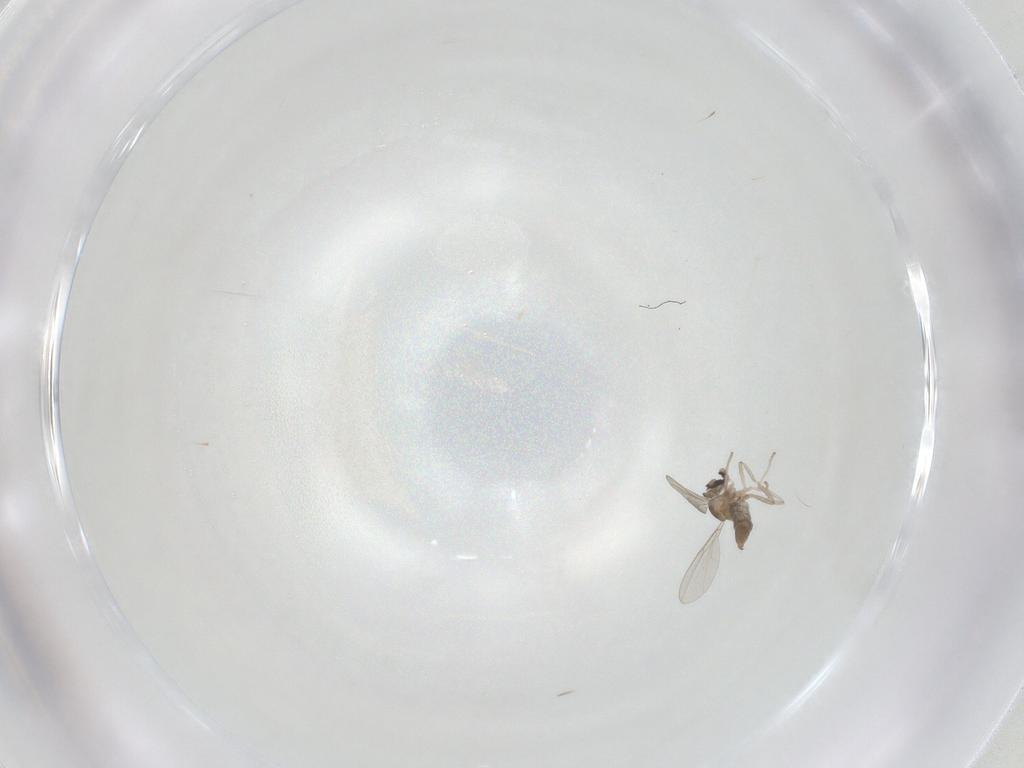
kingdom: Animalia
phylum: Arthropoda
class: Insecta
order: Diptera
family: Cecidomyiidae
